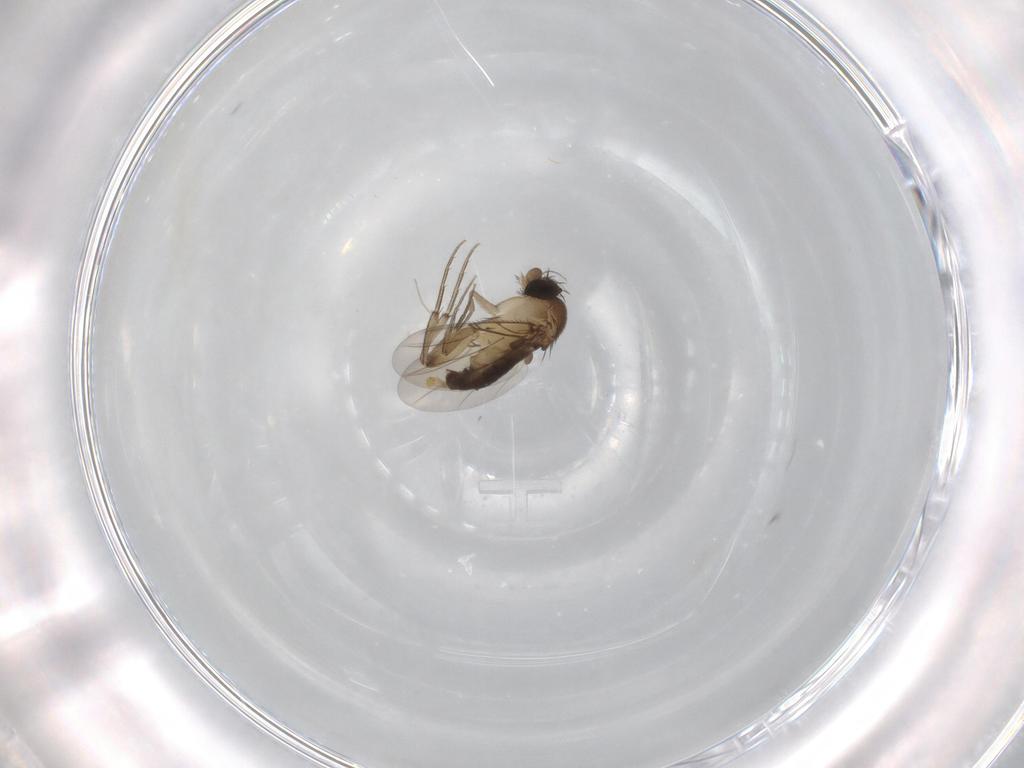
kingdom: Animalia
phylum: Arthropoda
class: Insecta
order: Diptera
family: Phoridae
